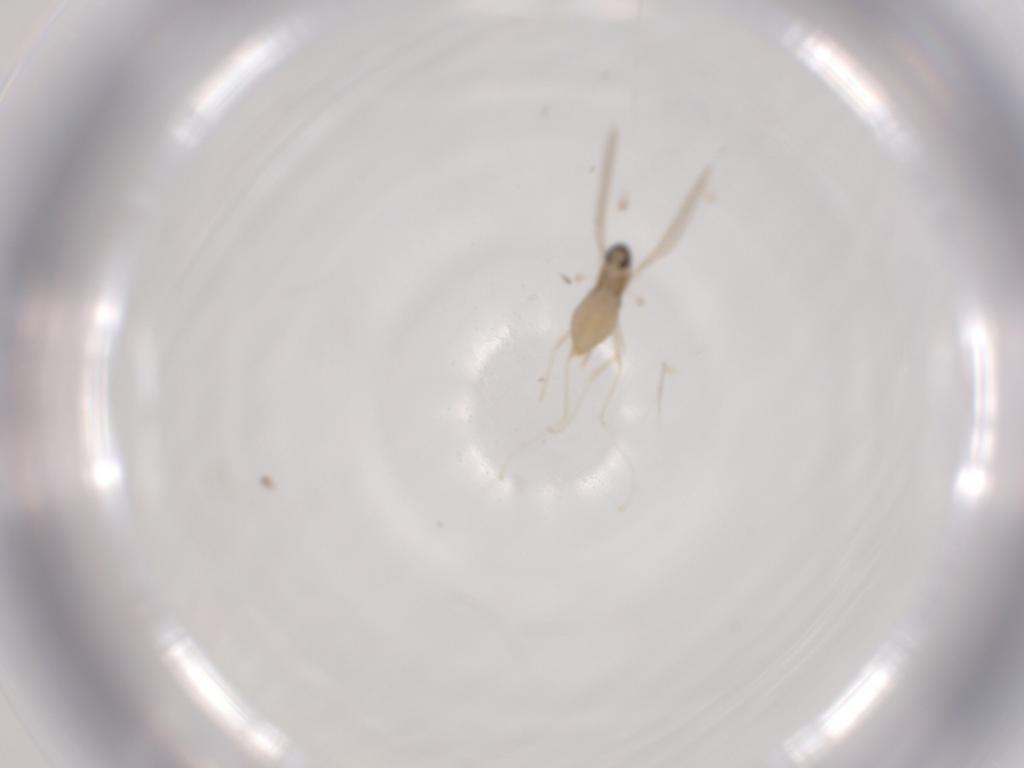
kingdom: Animalia
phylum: Arthropoda
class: Insecta
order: Diptera
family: Cecidomyiidae
